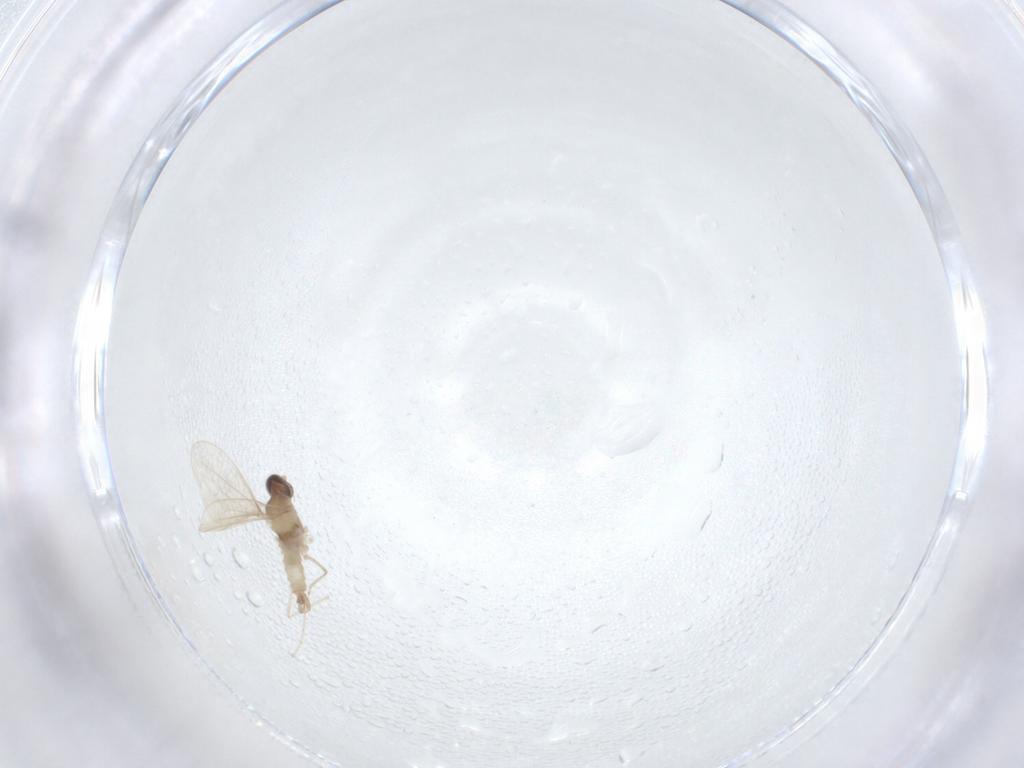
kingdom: Animalia
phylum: Arthropoda
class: Insecta
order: Diptera
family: Cecidomyiidae
